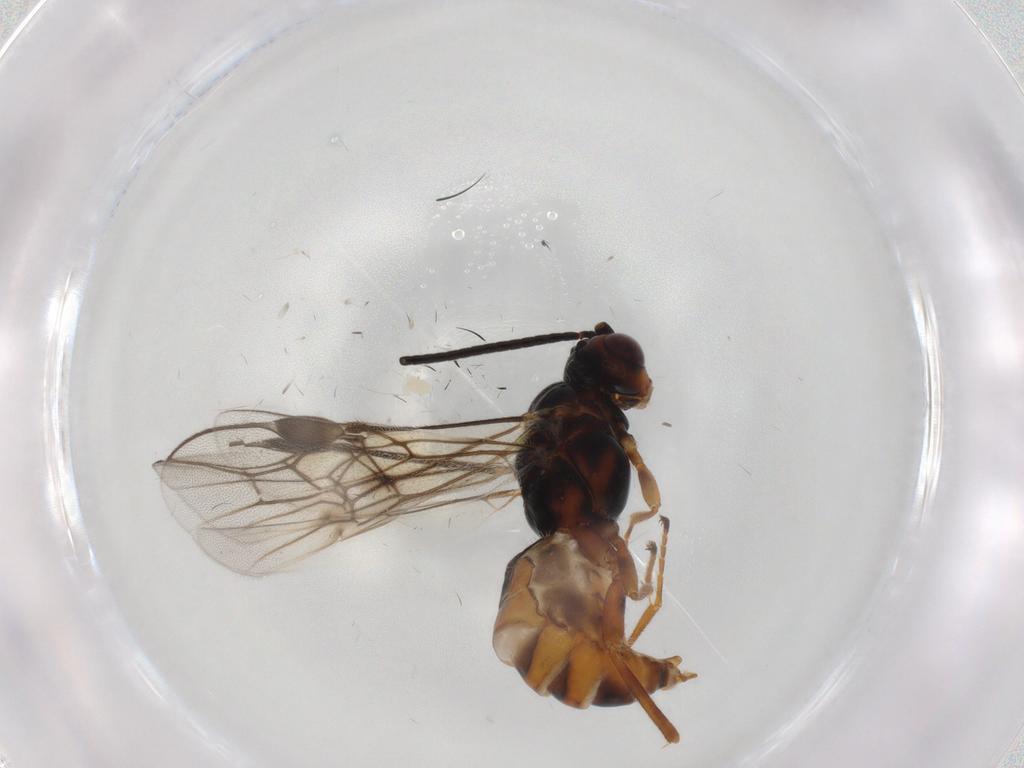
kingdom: Animalia
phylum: Arthropoda
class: Insecta
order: Hymenoptera
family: Braconidae
